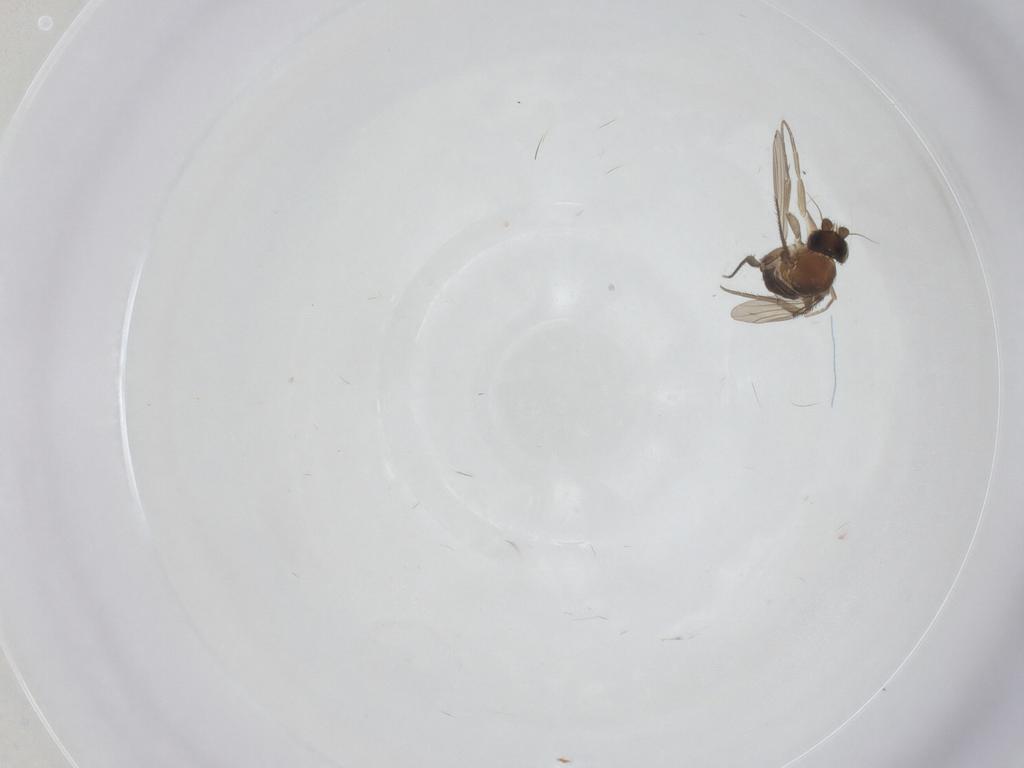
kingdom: Animalia
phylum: Arthropoda
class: Insecta
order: Diptera
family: Phoridae
